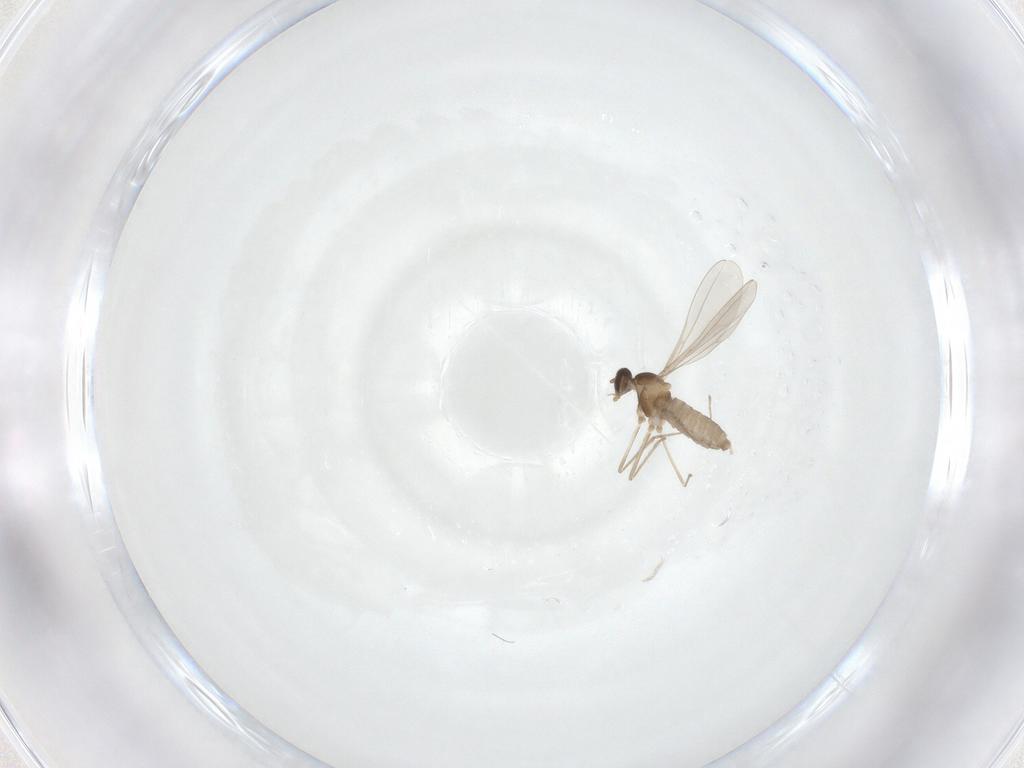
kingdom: Animalia
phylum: Arthropoda
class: Insecta
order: Diptera
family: Cecidomyiidae
